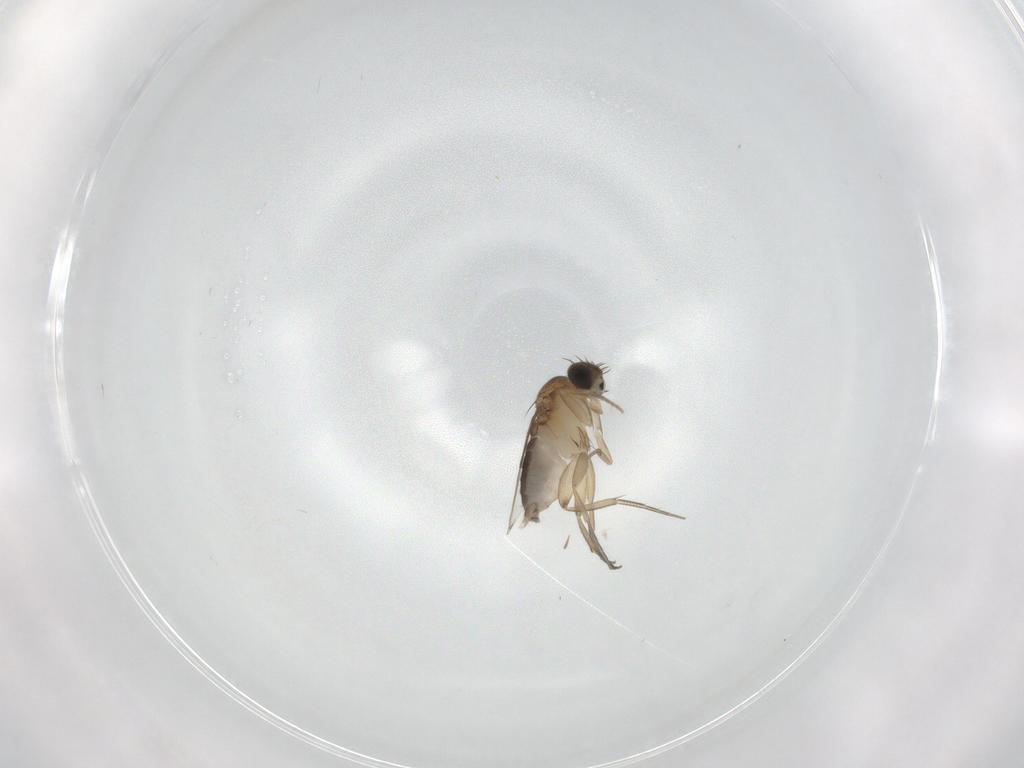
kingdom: Animalia
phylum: Arthropoda
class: Insecta
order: Diptera
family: Phoridae
